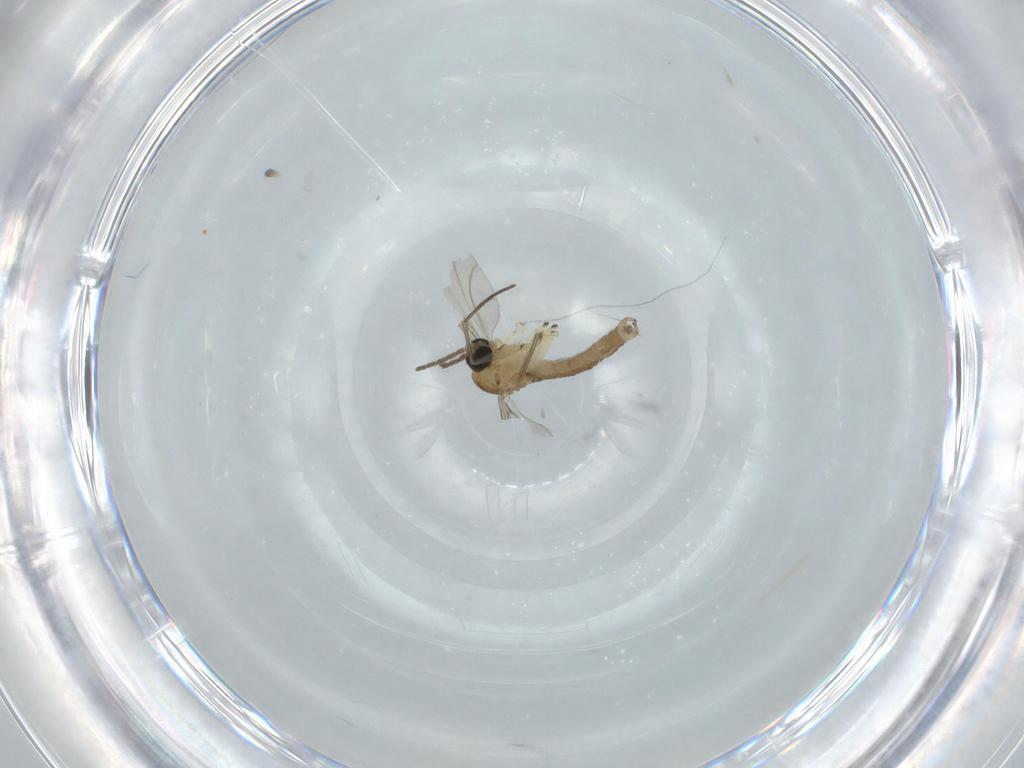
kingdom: Animalia
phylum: Arthropoda
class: Insecta
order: Diptera
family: Sciaridae
